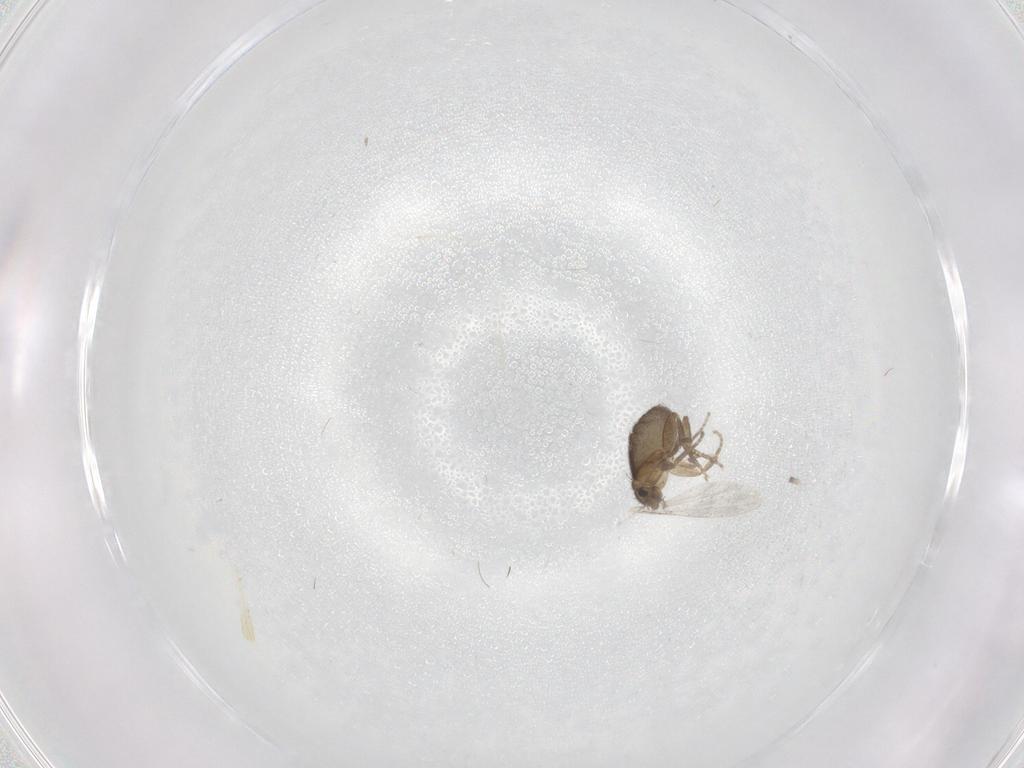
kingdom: Animalia
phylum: Arthropoda
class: Insecta
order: Diptera
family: Phoridae
